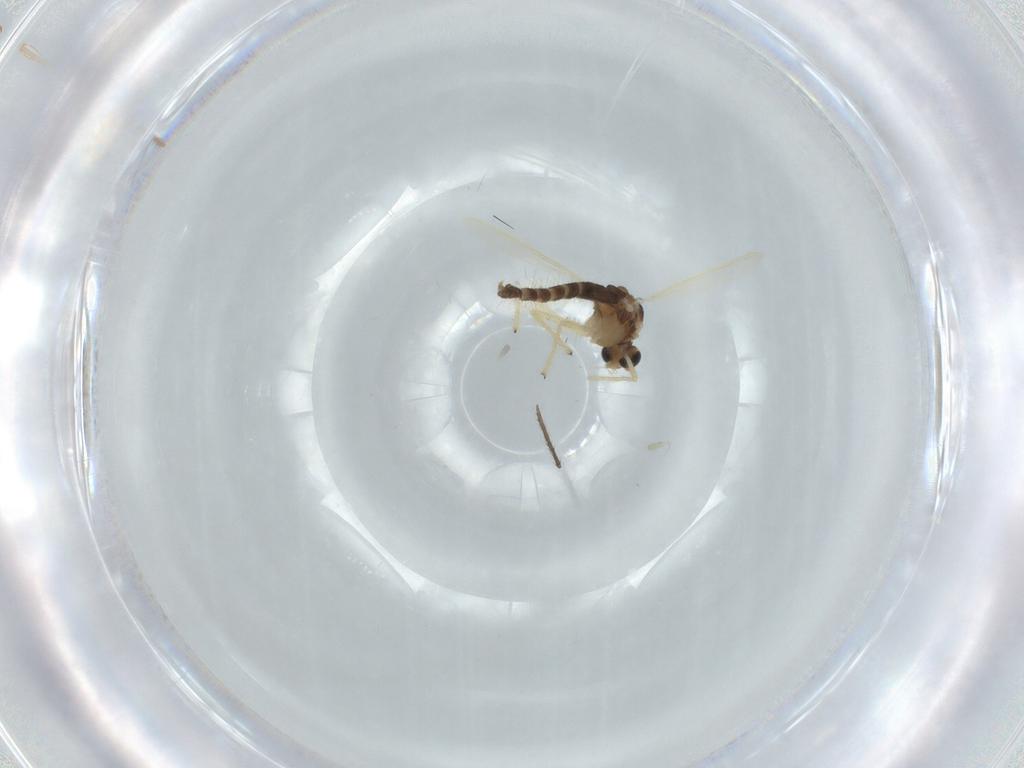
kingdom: Animalia
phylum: Arthropoda
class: Insecta
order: Diptera
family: Chironomidae
